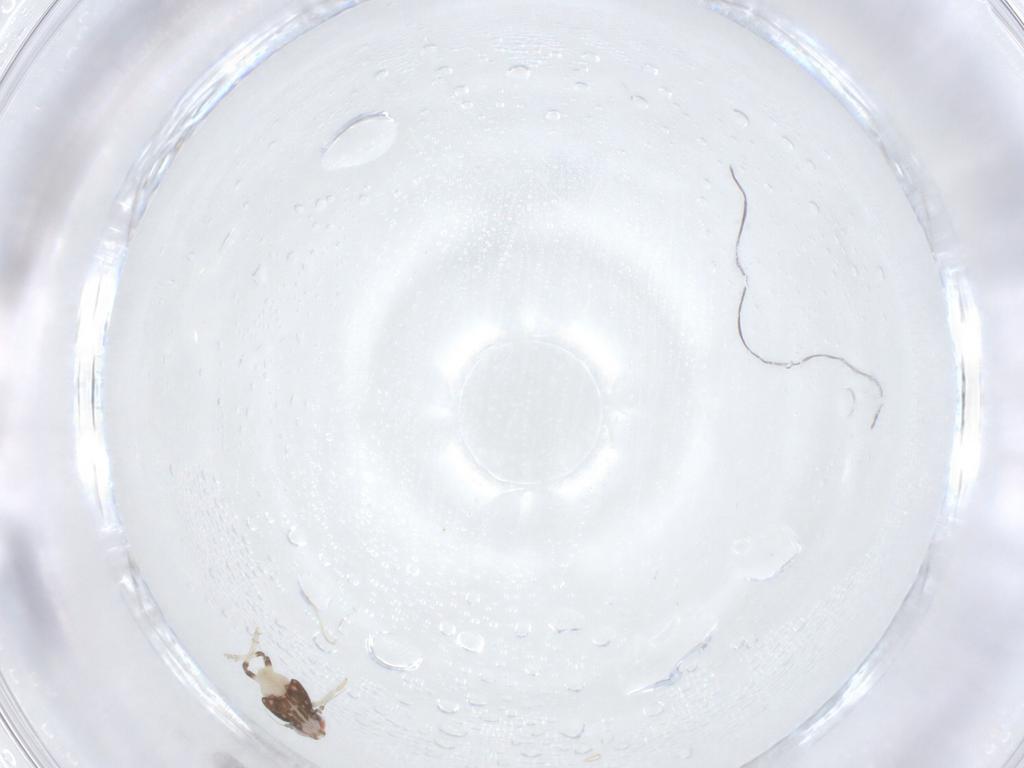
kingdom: Animalia
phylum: Arthropoda
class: Insecta
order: Hemiptera
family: Nogodinidae
